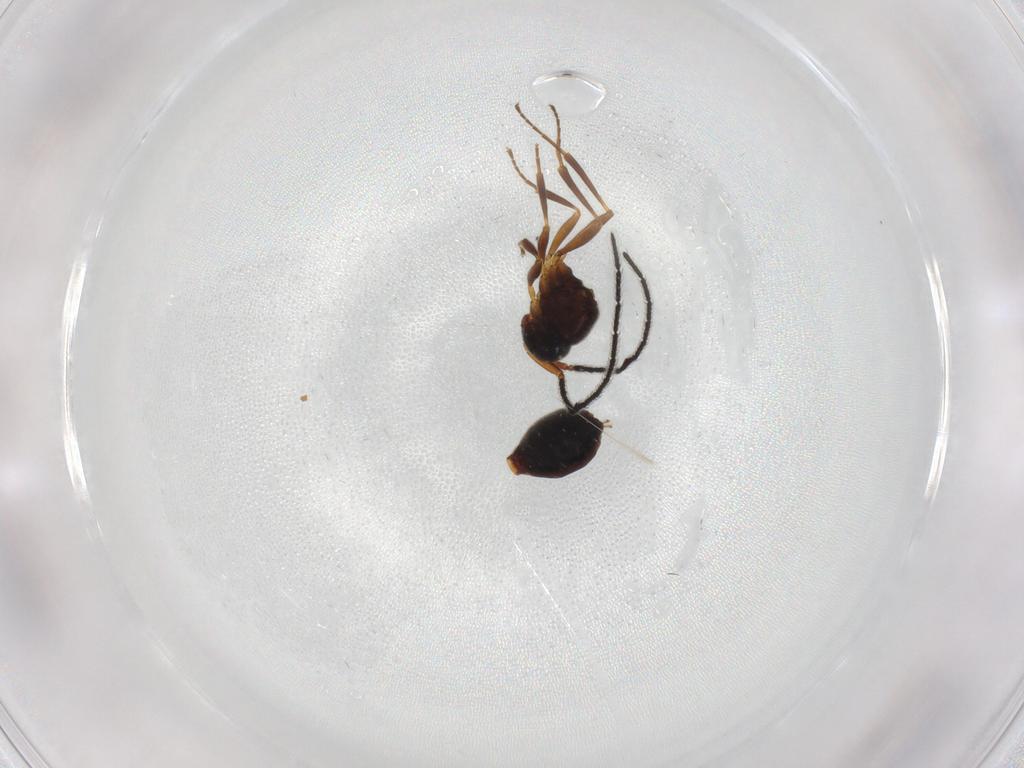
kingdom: Animalia
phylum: Arthropoda
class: Insecta
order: Hymenoptera
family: Scelionidae
